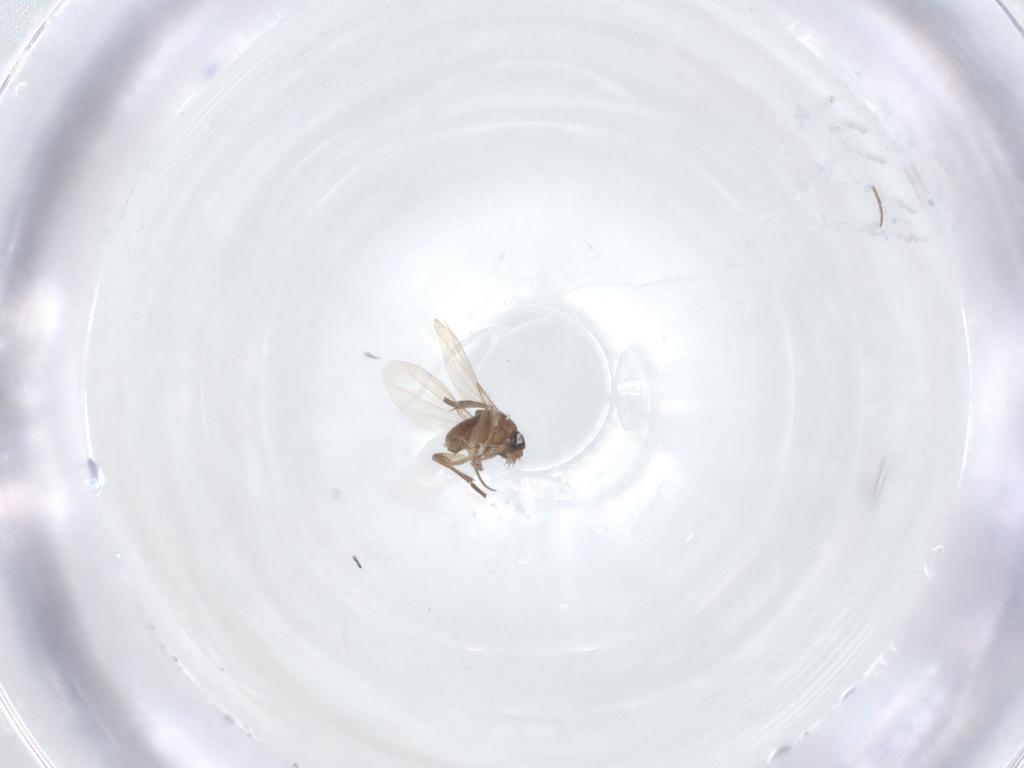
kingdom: Animalia
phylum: Arthropoda
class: Insecta
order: Diptera
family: Phoridae
